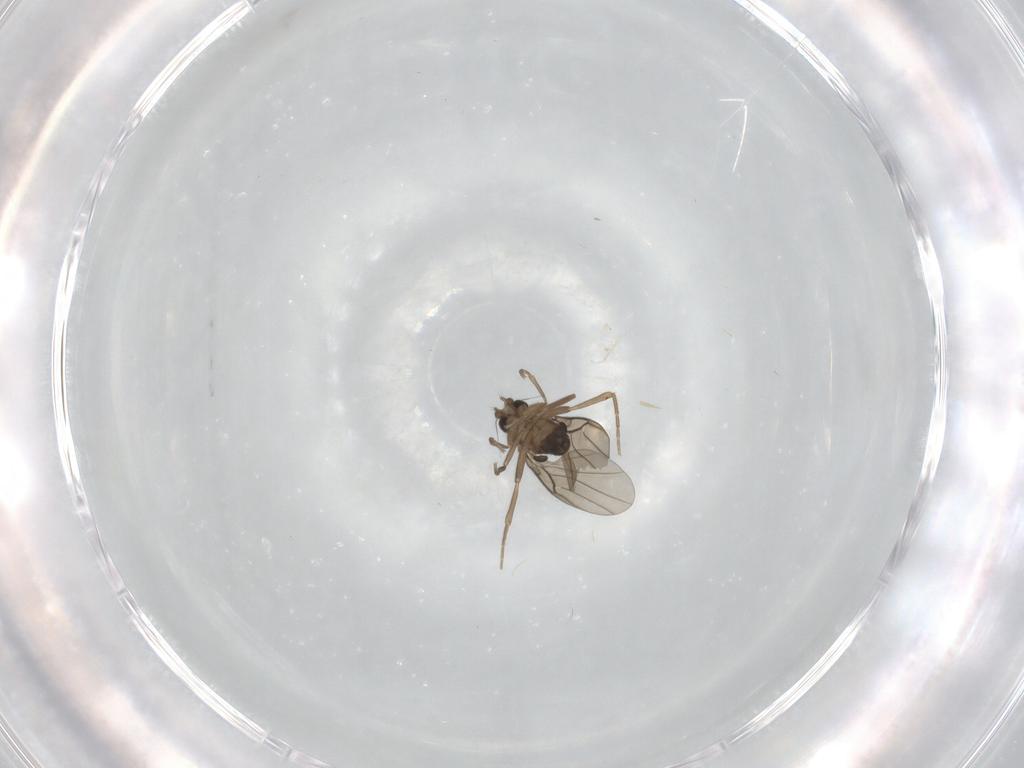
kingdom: Animalia
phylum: Arthropoda
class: Insecta
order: Diptera
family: Phoridae
